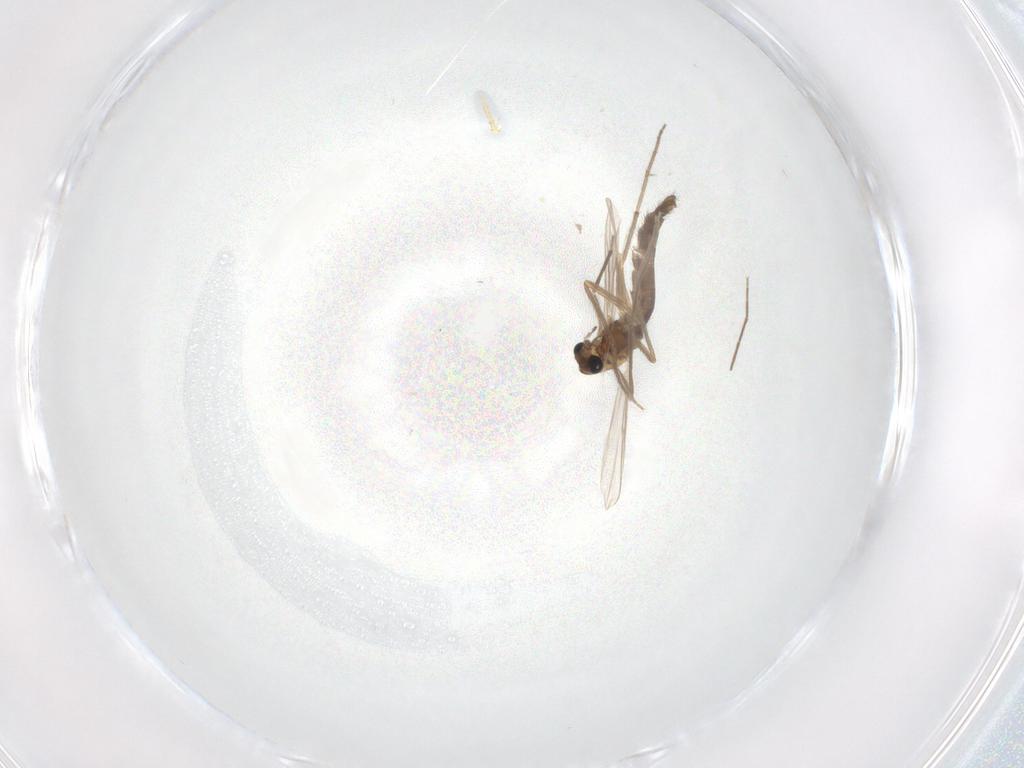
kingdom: Animalia
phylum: Arthropoda
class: Insecta
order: Diptera
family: Chironomidae
